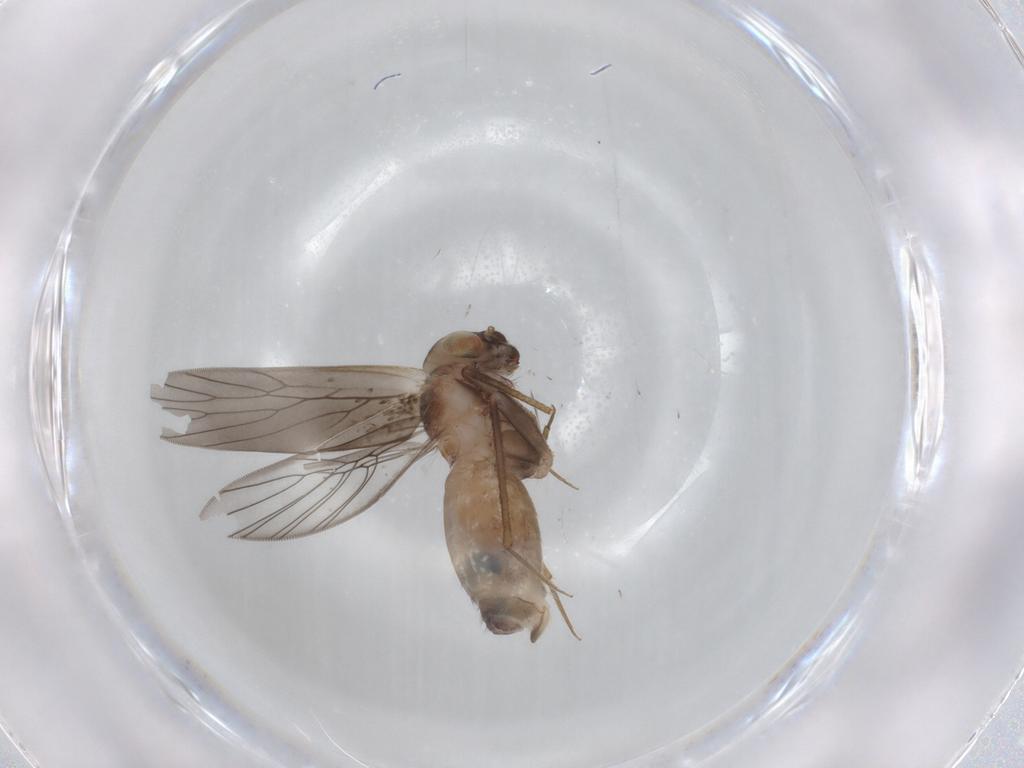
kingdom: Animalia
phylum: Arthropoda
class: Insecta
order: Psocodea
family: Lepidopsocidae
